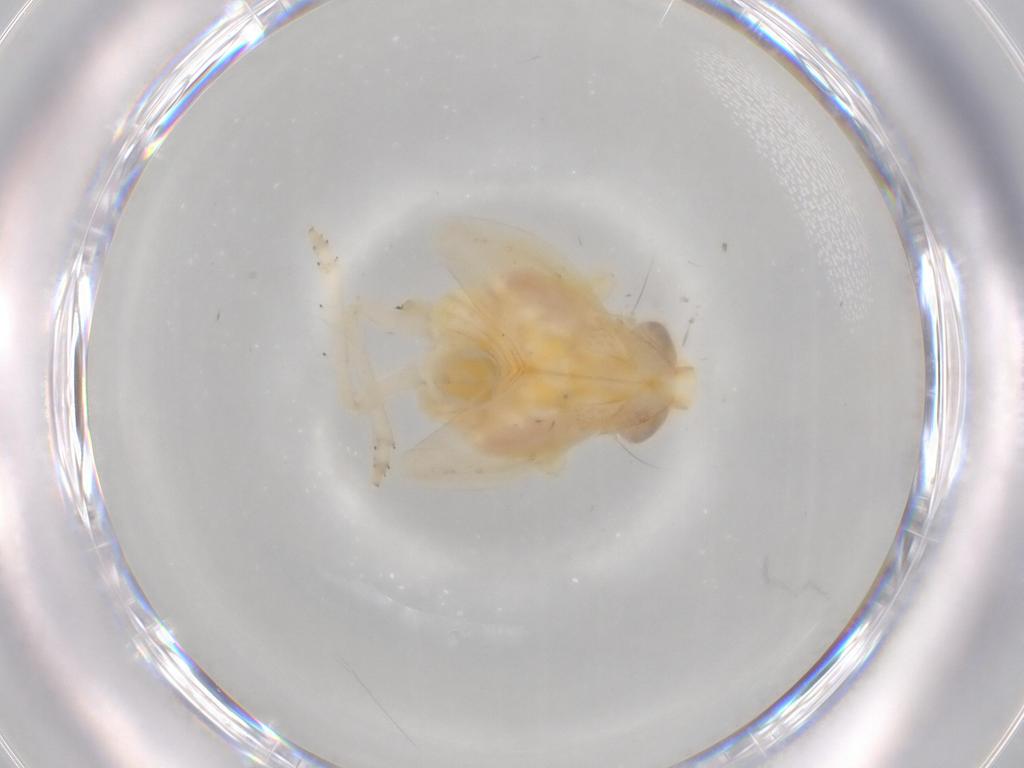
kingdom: Animalia
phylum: Arthropoda
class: Insecta
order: Hemiptera
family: Nogodinidae
